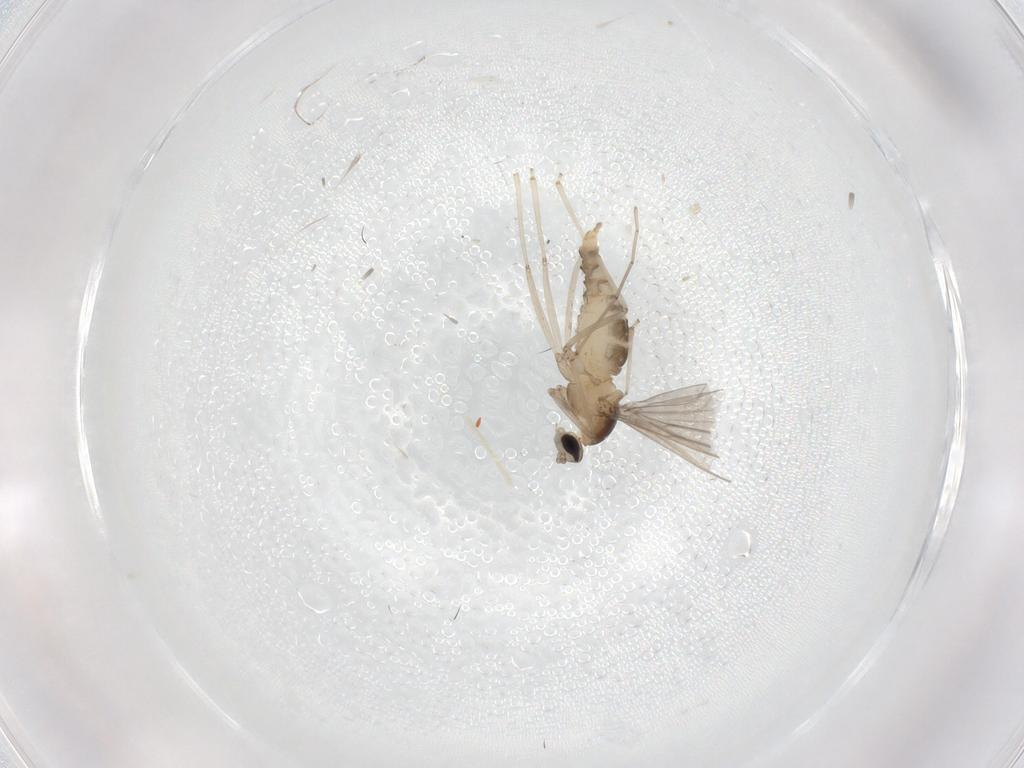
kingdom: Animalia
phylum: Arthropoda
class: Insecta
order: Diptera
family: Cecidomyiidae
